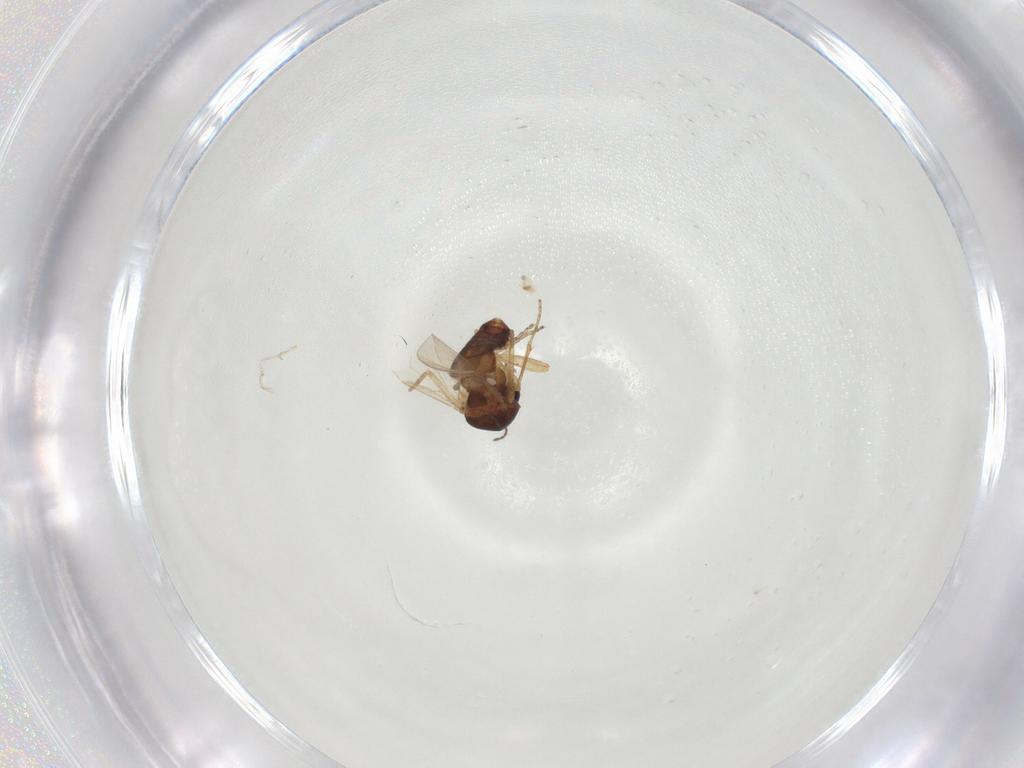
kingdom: Animalia
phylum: Arthropoda
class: Insecta
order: Diptera
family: Ceratopogonidae
